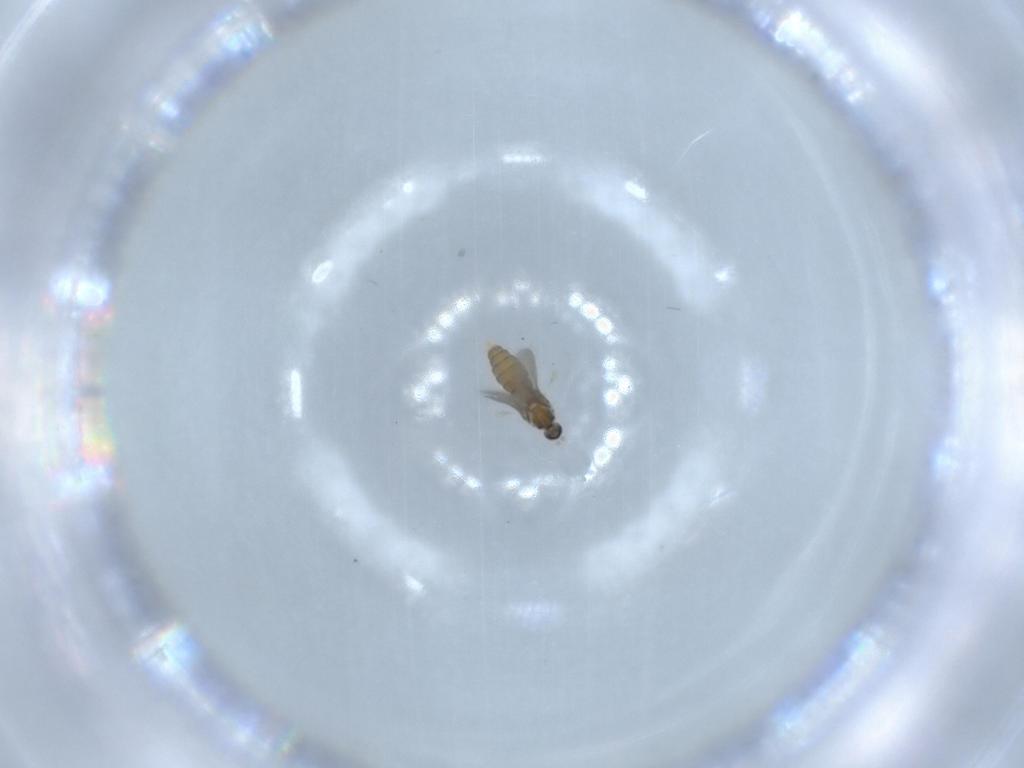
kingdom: Animalia
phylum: Arthropoda
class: Insecta
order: Diptera
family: Cecidomyiidae
